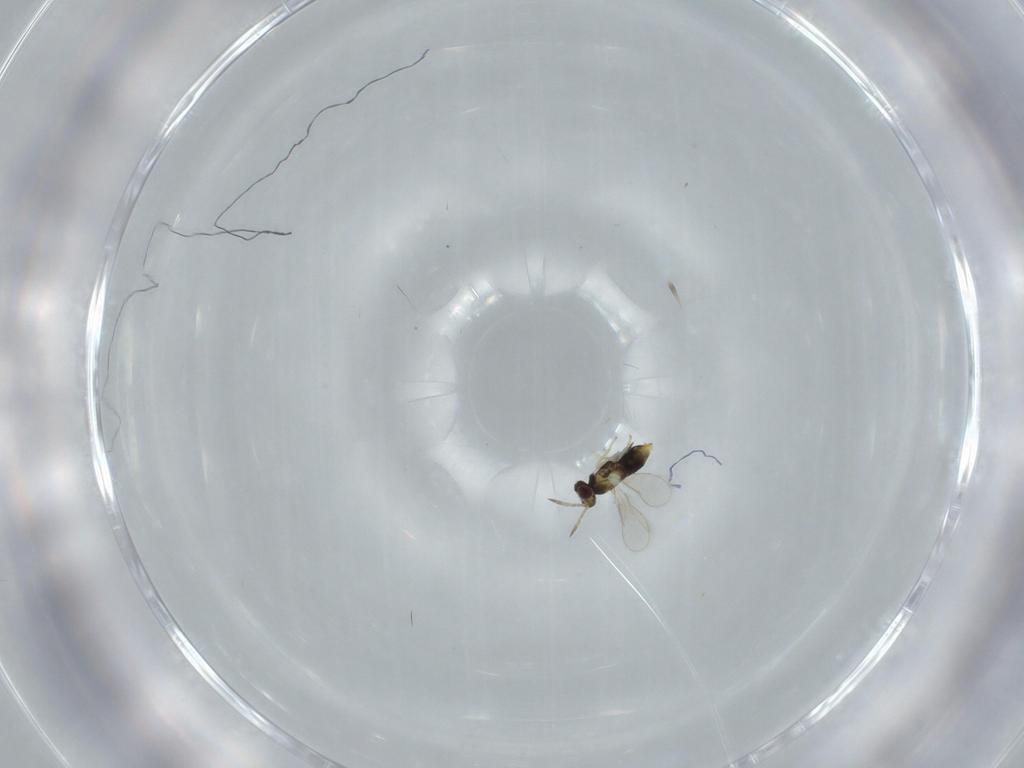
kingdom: Animalia
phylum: Arthropoda
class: Insecta
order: Hymenoptera
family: Aphelinidae
